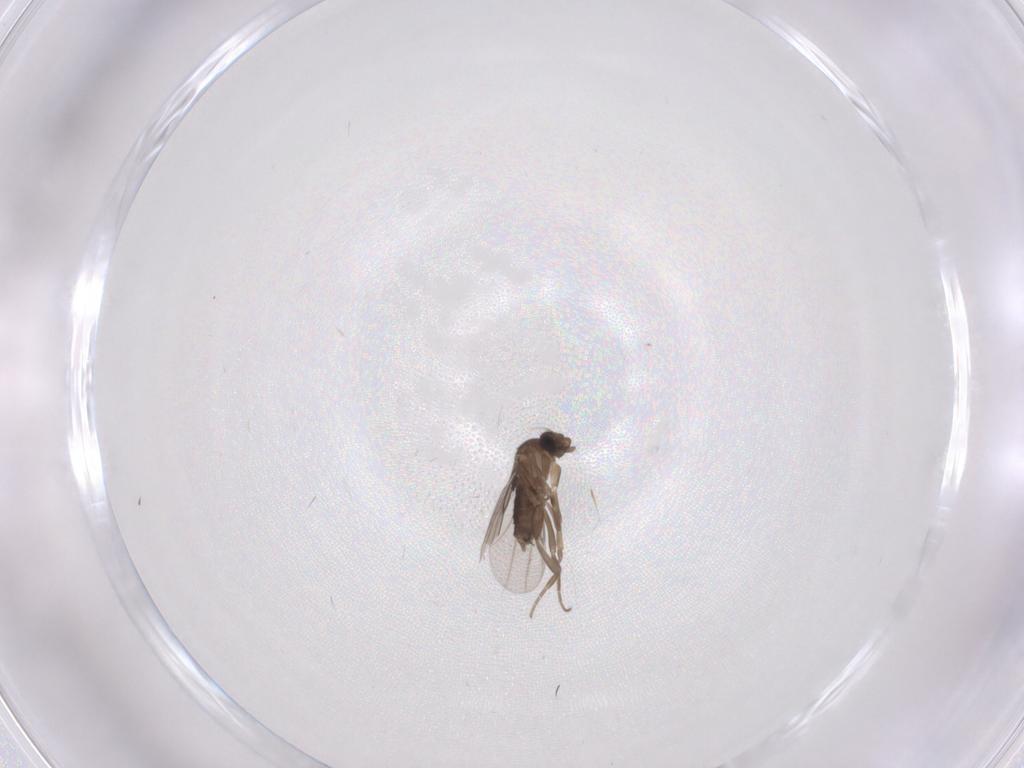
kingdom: Animalia
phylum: Arthropoda
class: Insecta
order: Diptera
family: Phoridae
